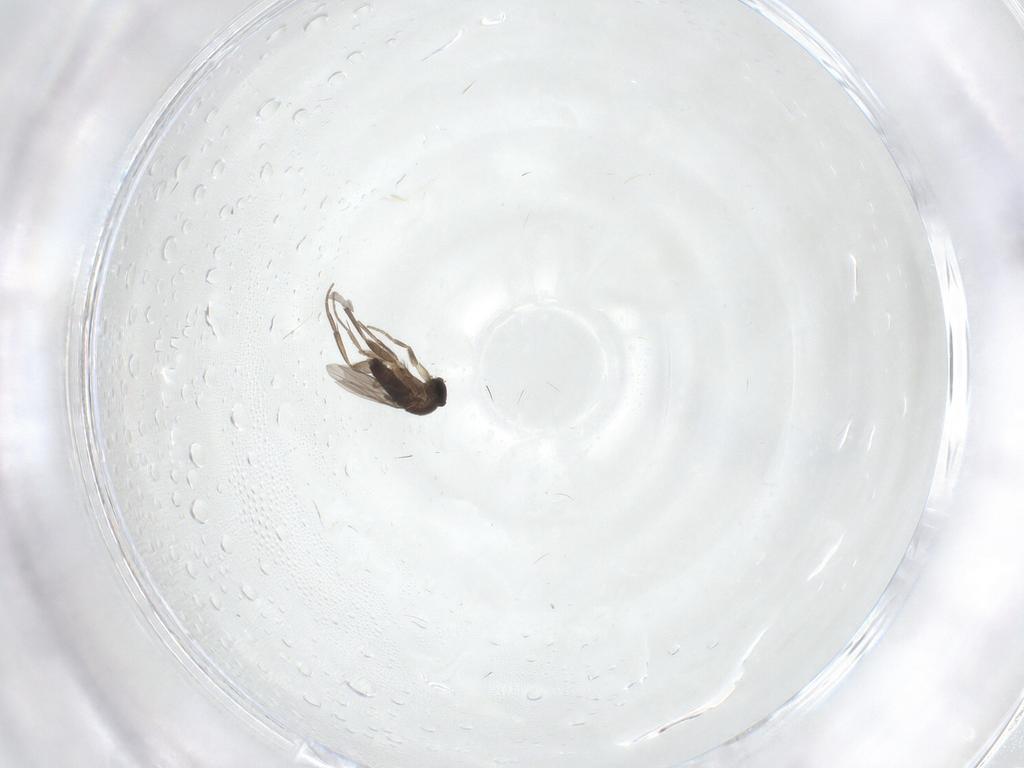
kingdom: Animalia
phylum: Arthropoda
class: Insecta
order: Diptera
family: Phoridae
